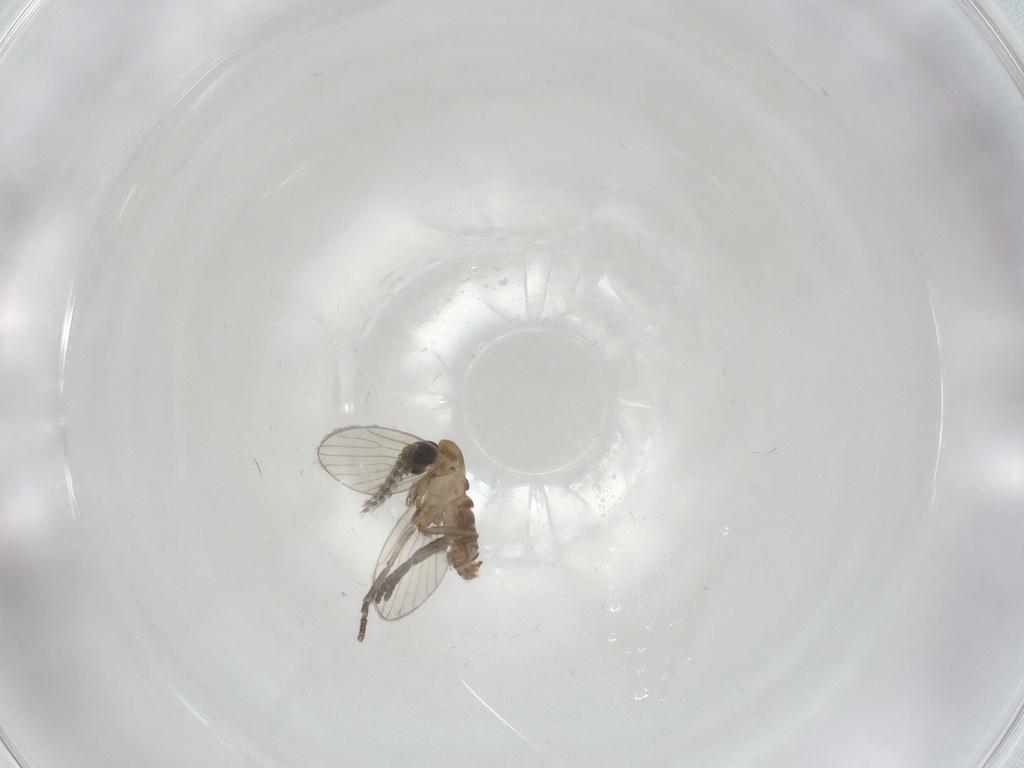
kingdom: Animalia
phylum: Arthropoda
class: Insecta
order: Diptera
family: Psychodidae
